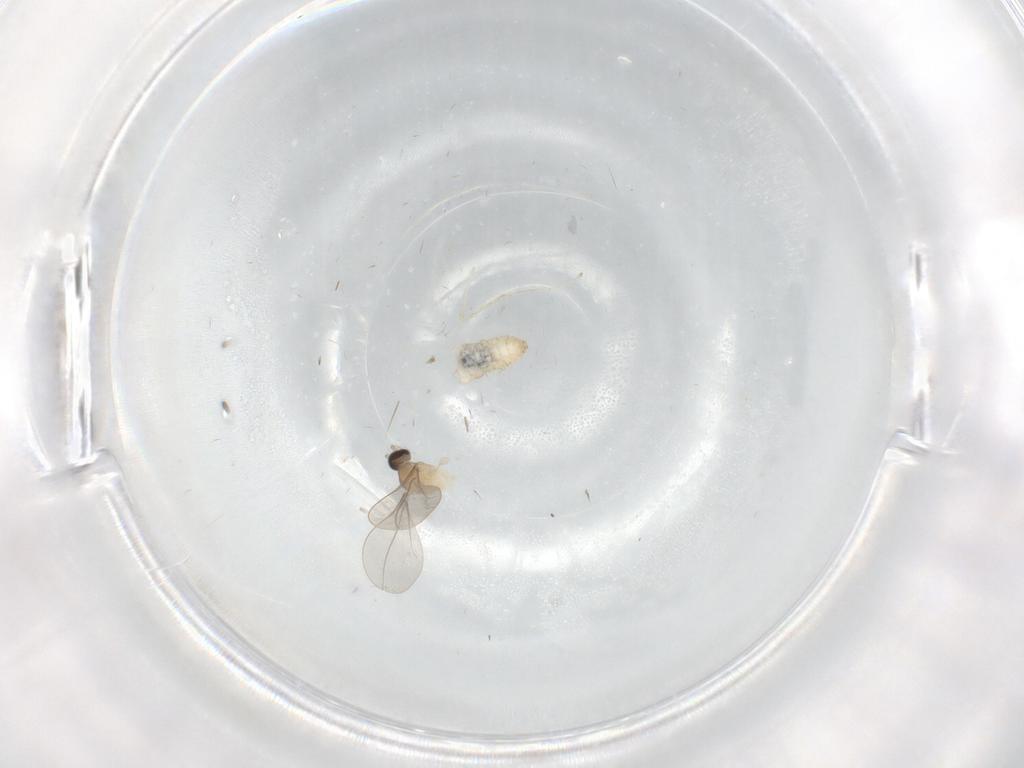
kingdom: Animalia
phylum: Arthropoda
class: Insecta
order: Diptera
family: Cecidomyiidae
